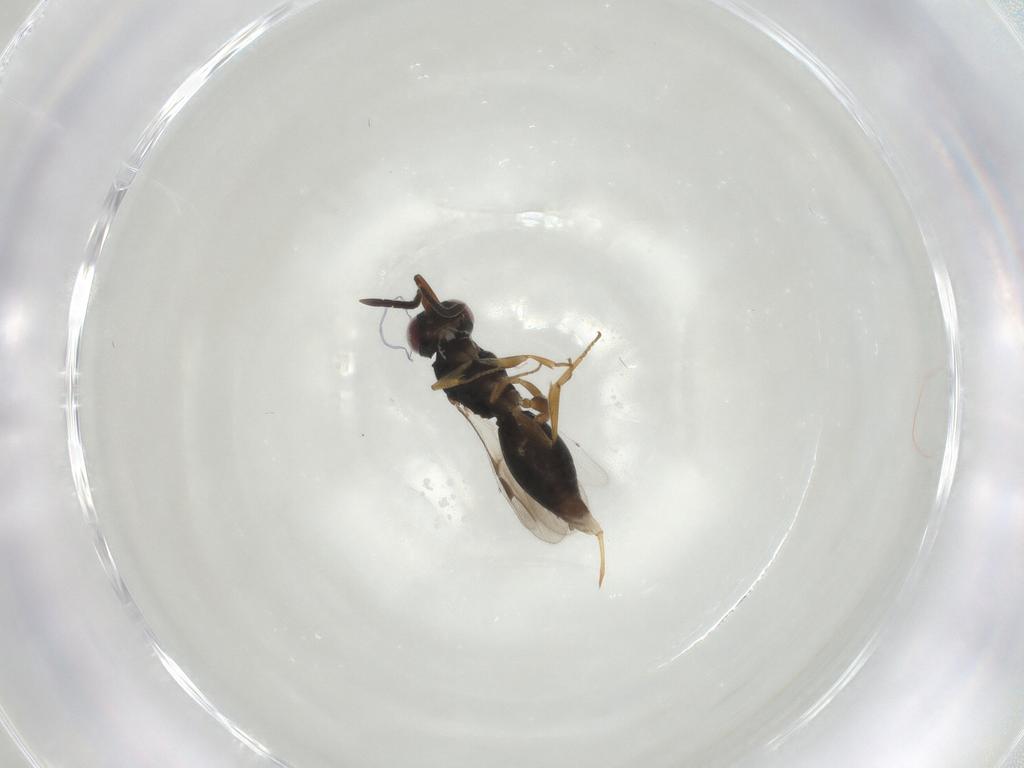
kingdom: Animalia
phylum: Arthropoda
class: Insecta
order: Hymenoptera
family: Megaspilidae
